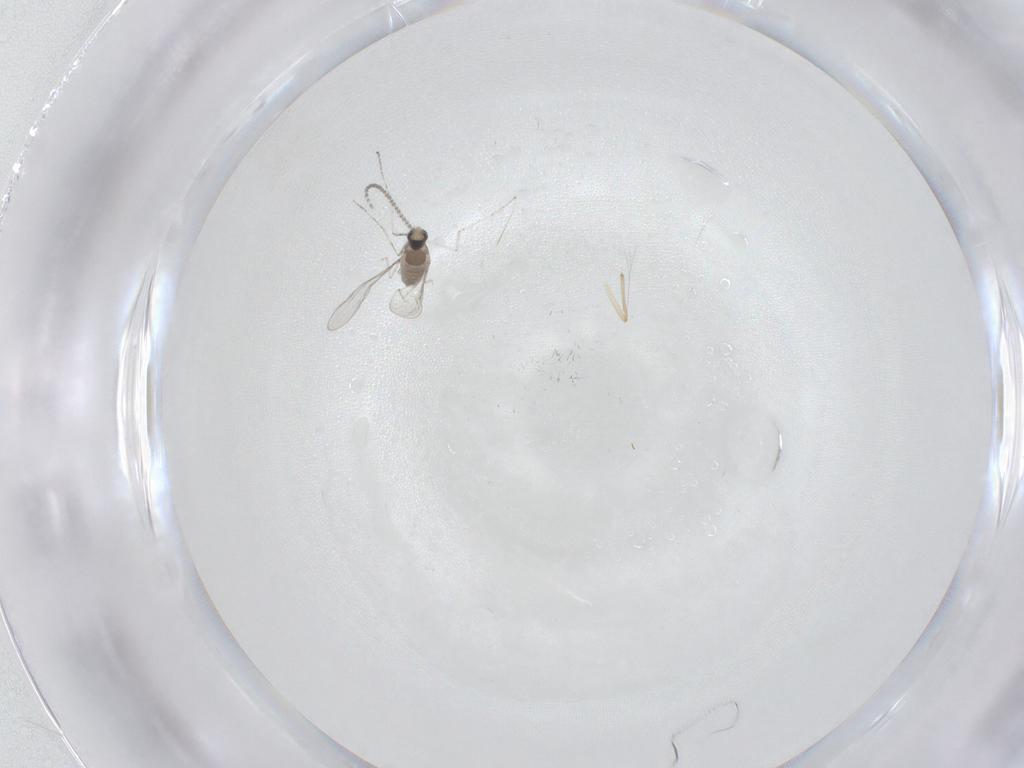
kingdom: Animalia
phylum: Arthropoda
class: Insecta
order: Diptera
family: Cecidomyiidae
